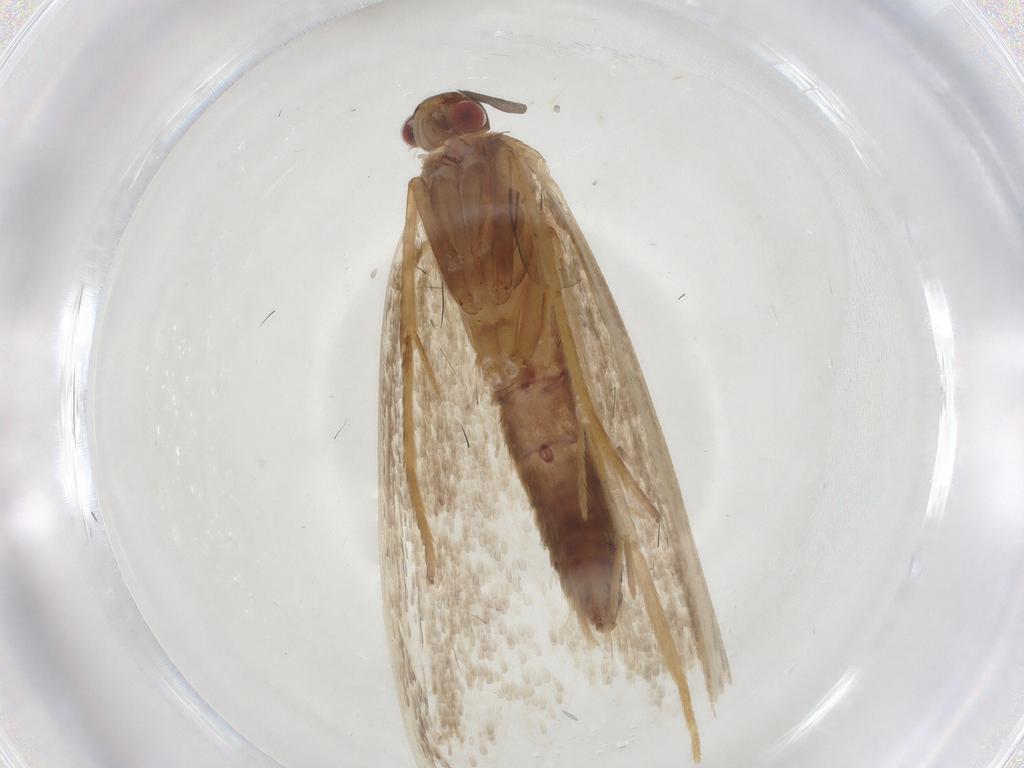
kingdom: Animalia
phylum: Arthropoda
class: Insecta
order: Lepidoptera
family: Oecophoridae
